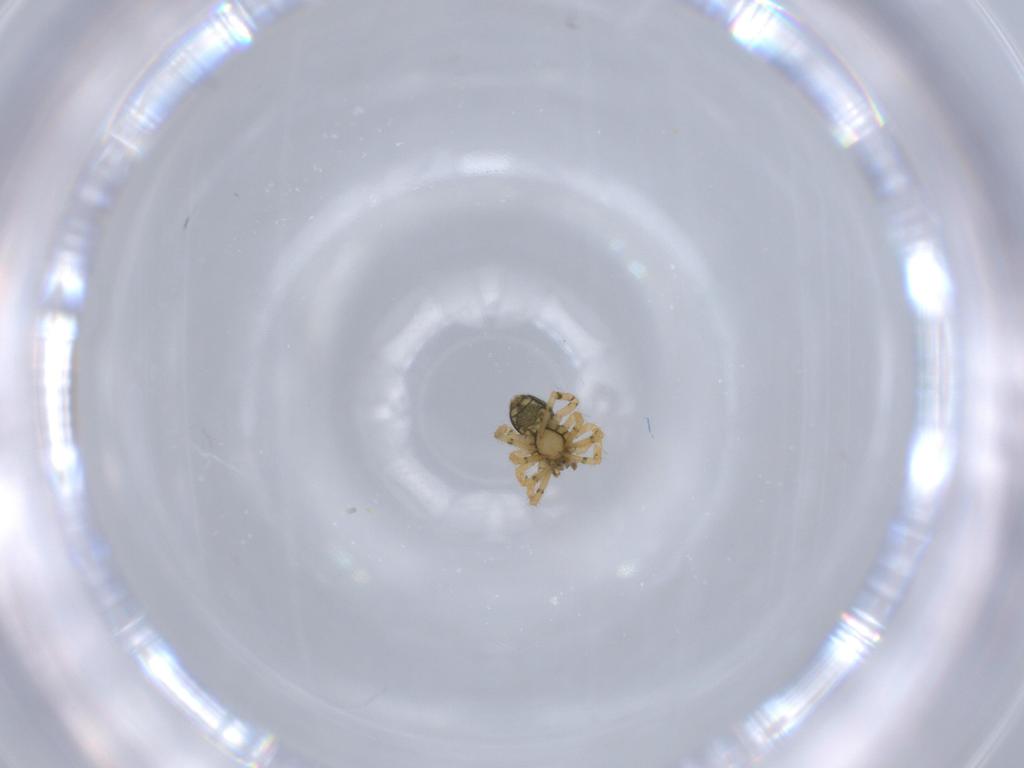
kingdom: Animalia
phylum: Arthropoda
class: Arachnida
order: Araneae
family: Theridiidae
